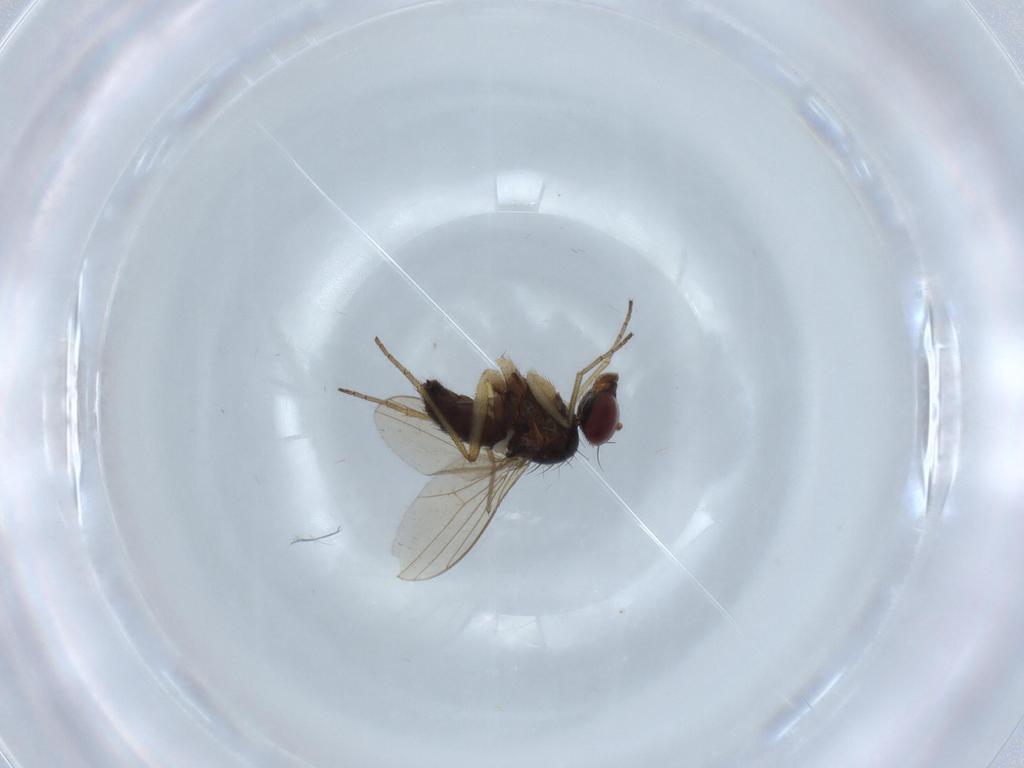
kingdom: Animalia
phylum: Arthropoda
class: Insecta
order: Diptera
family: Dolichopodidae
